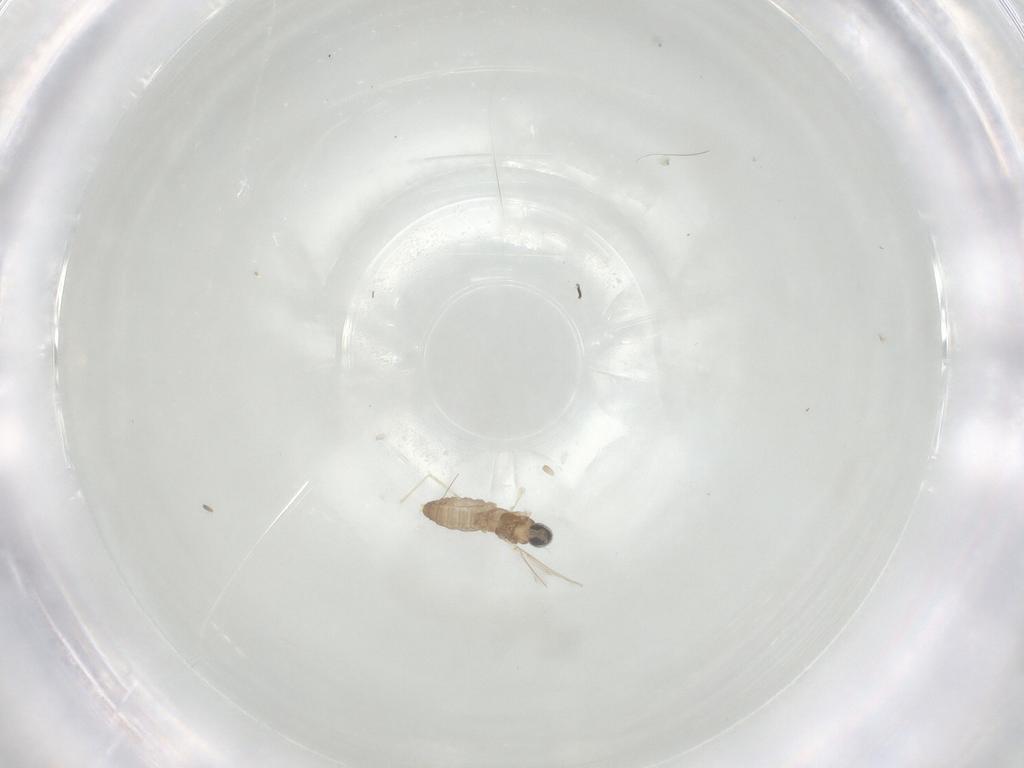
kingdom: Animalia
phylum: Arthropoda
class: Insecta
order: Diptera
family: Cecidomyiidae
